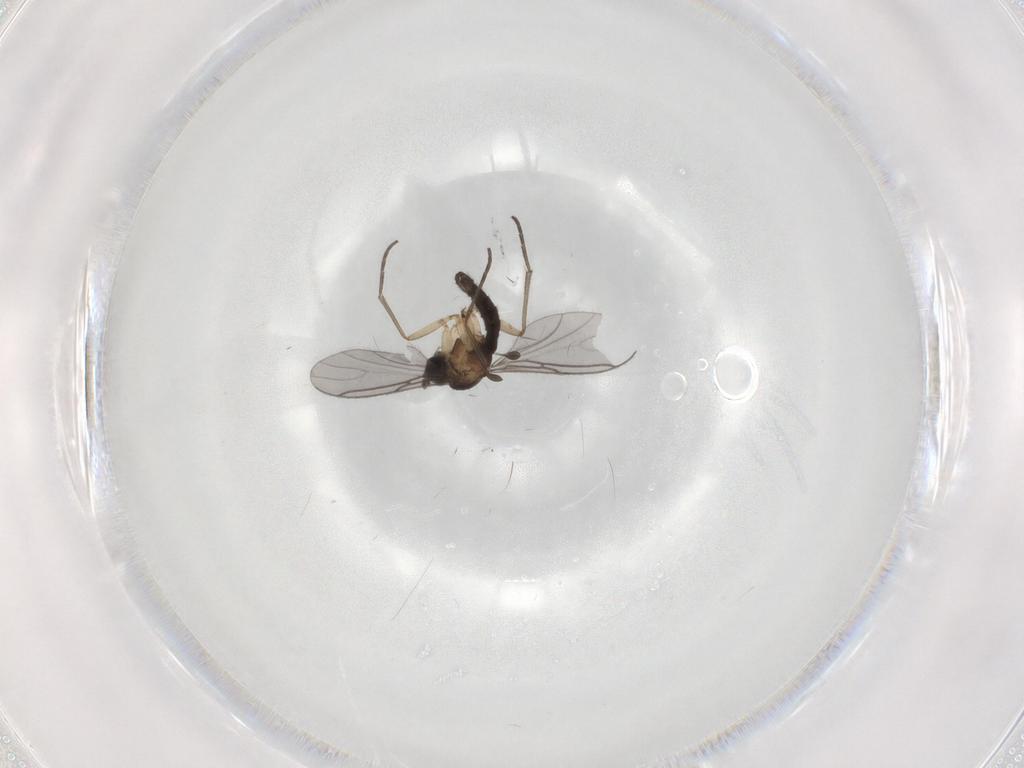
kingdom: Animalia
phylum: Arthropoda
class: Insecta
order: Diptera
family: Sciaridae
